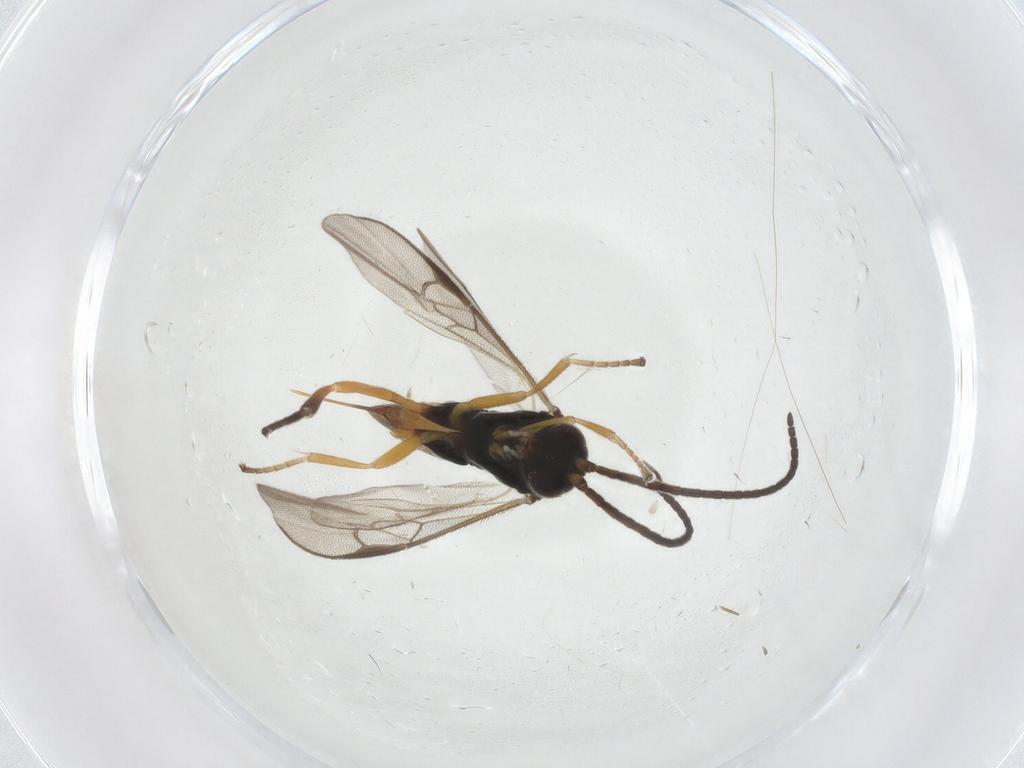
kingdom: Animalia
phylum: Arthropoda
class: Insecta
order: Hymenoptera
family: Braconidae
